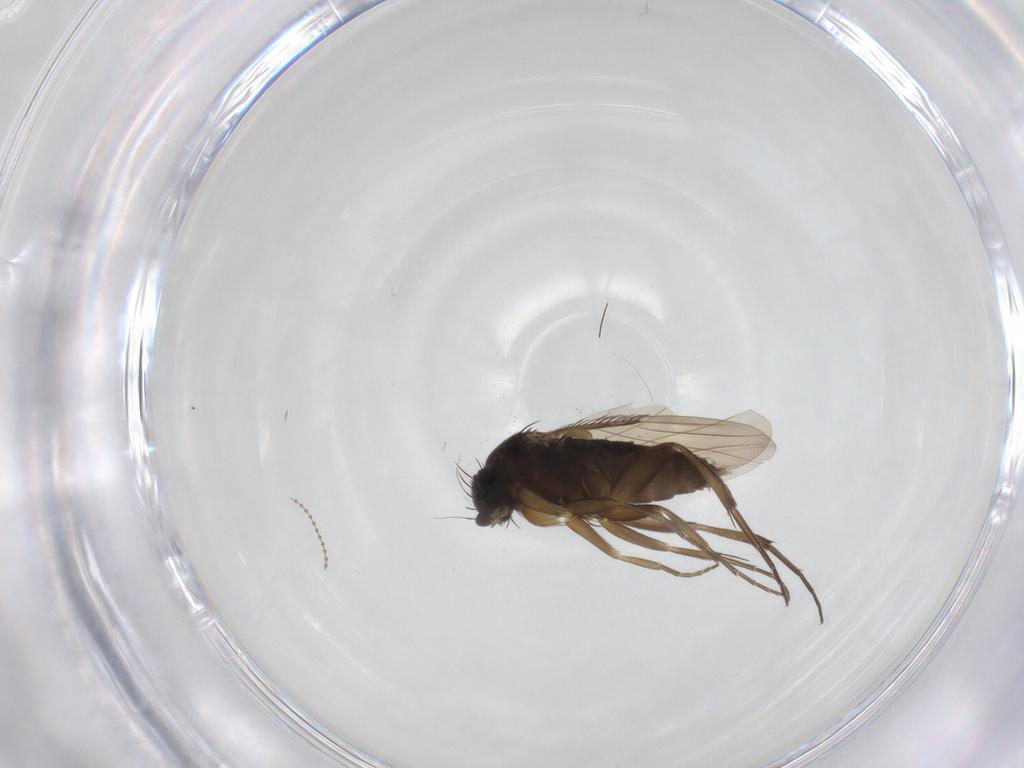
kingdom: Animalia
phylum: Arthropoda
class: Insecta
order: Diptera
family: Phoridae
